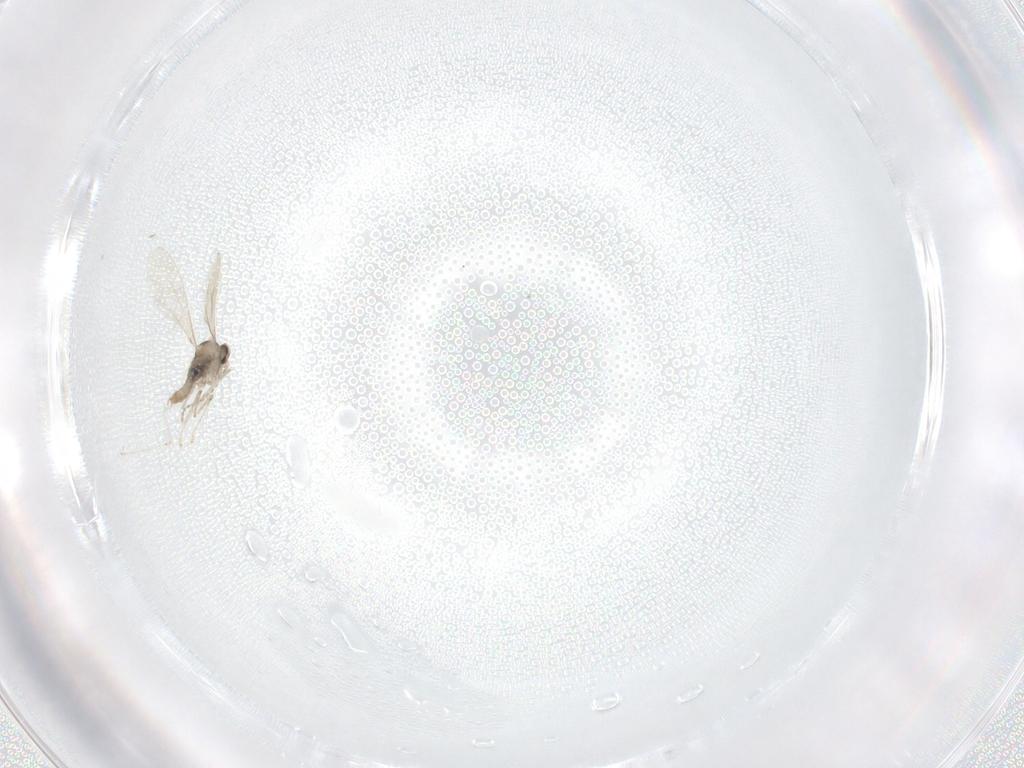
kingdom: Animalia
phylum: Arthropoda
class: Insecta
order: Diptera
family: Cecidomyiidae
